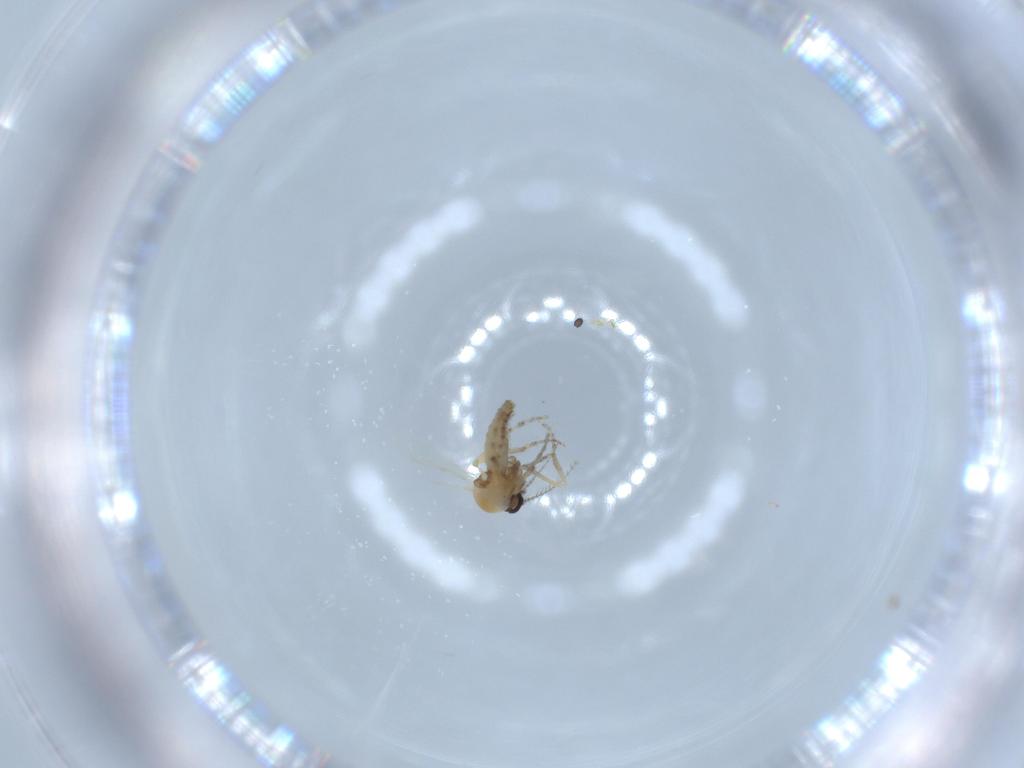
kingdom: Animalia
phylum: Arthropoda
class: Insecta
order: Diptera
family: Ceratopogonidae
